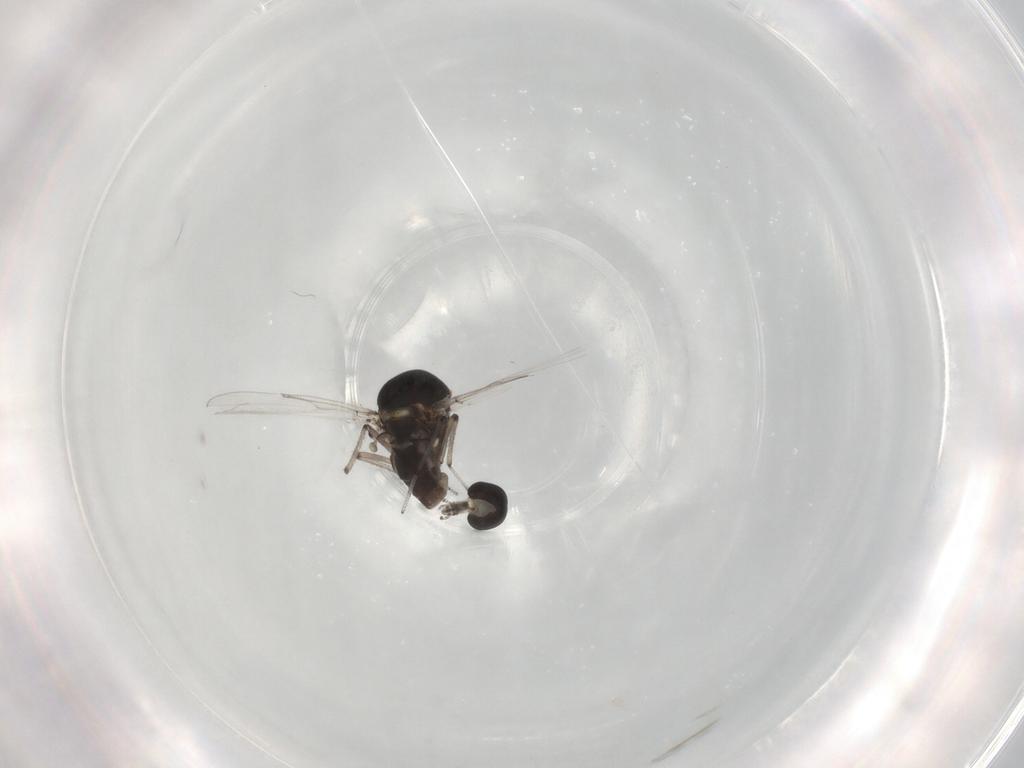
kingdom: Animalia
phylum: Arthropoda
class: Insecta
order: Diptera
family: Ceratopogonidae
